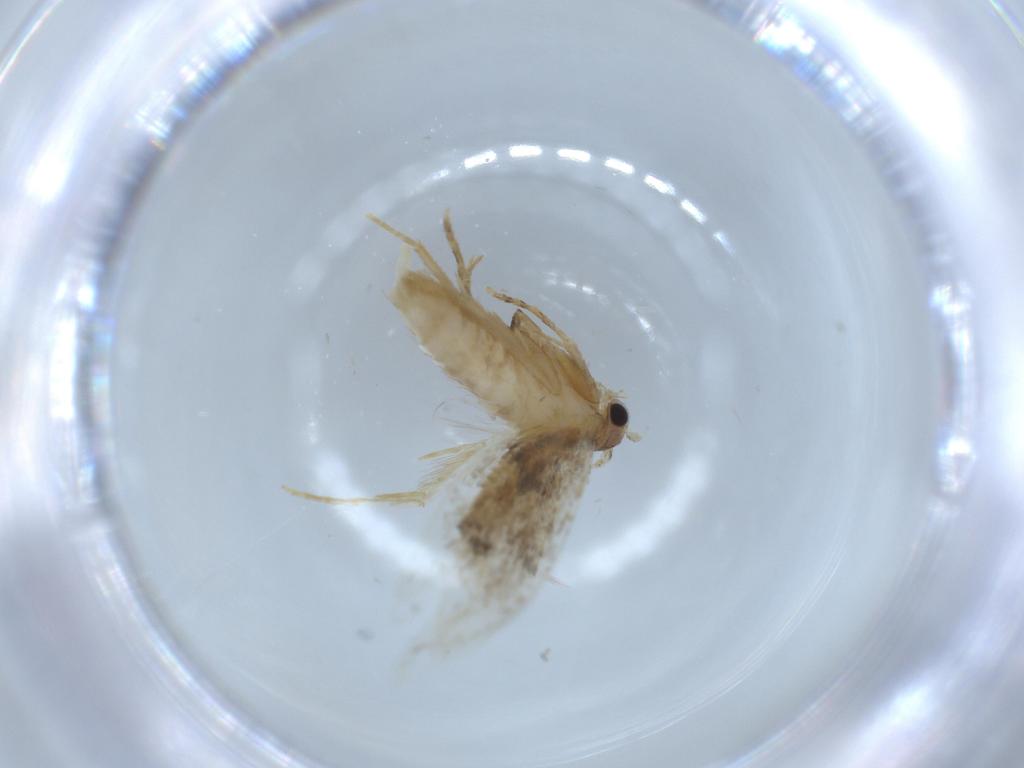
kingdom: Animalia
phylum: Arthropoda
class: Insecta
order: Lepidoptera
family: Tineidae
